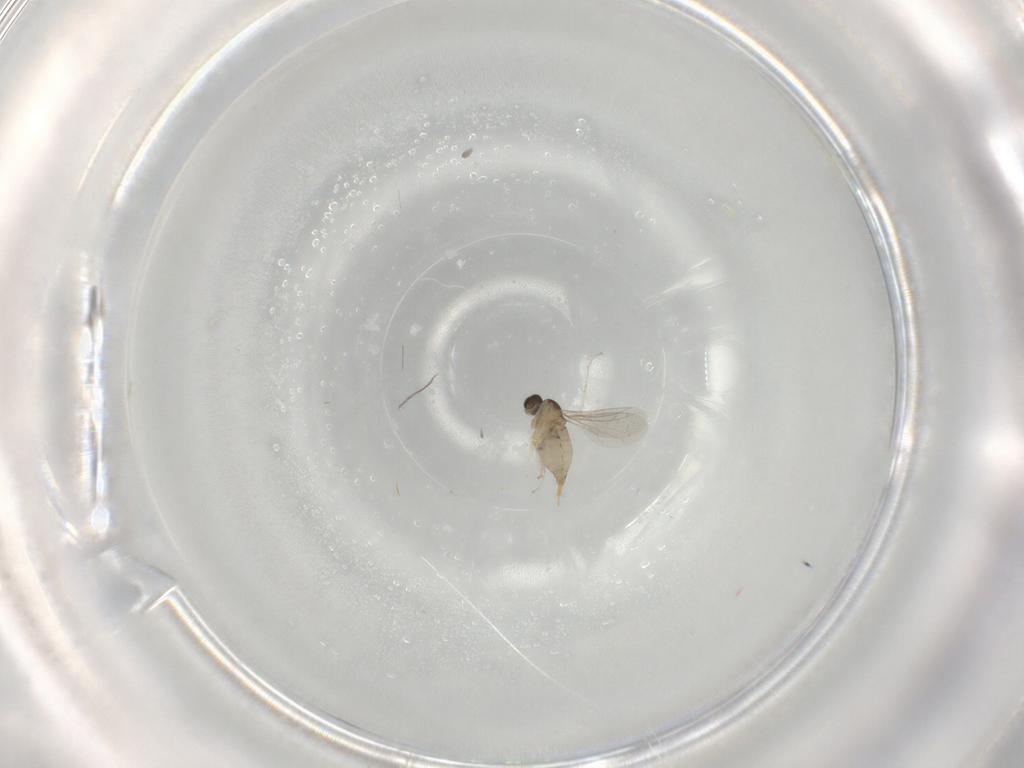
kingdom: Animalia
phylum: Arthropoda
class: Insecta
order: Diptera
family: Cecidomyiidae
